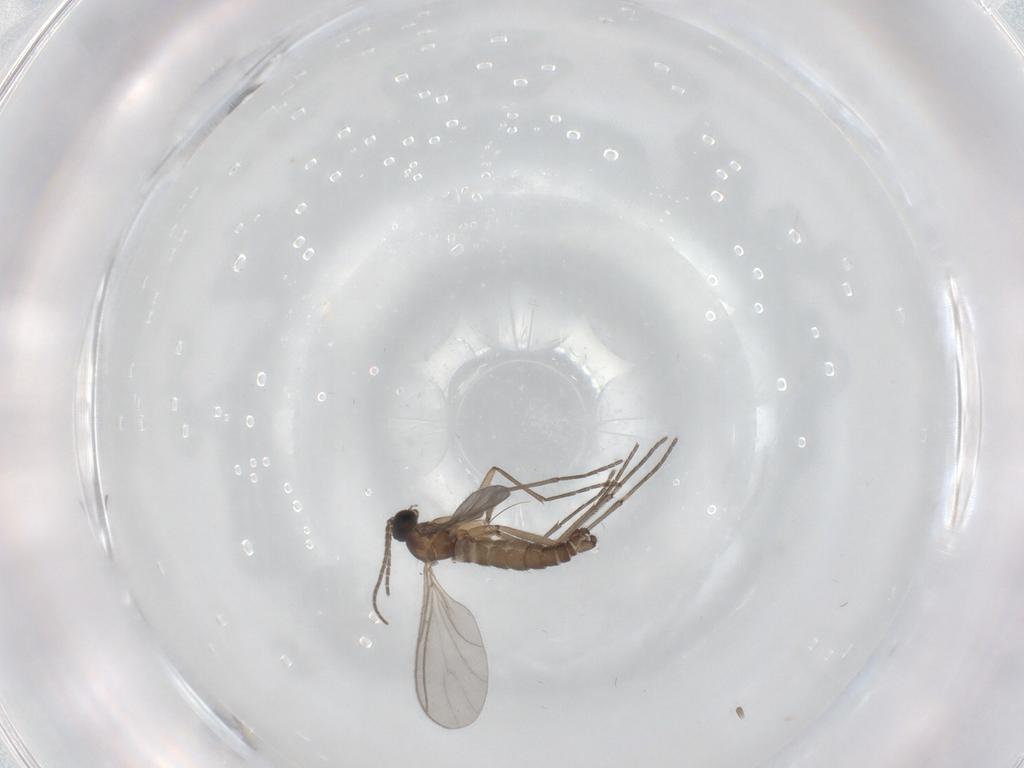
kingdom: Animalia
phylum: Arthropoda
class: Insecta
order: Diptera
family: Sciaridae
